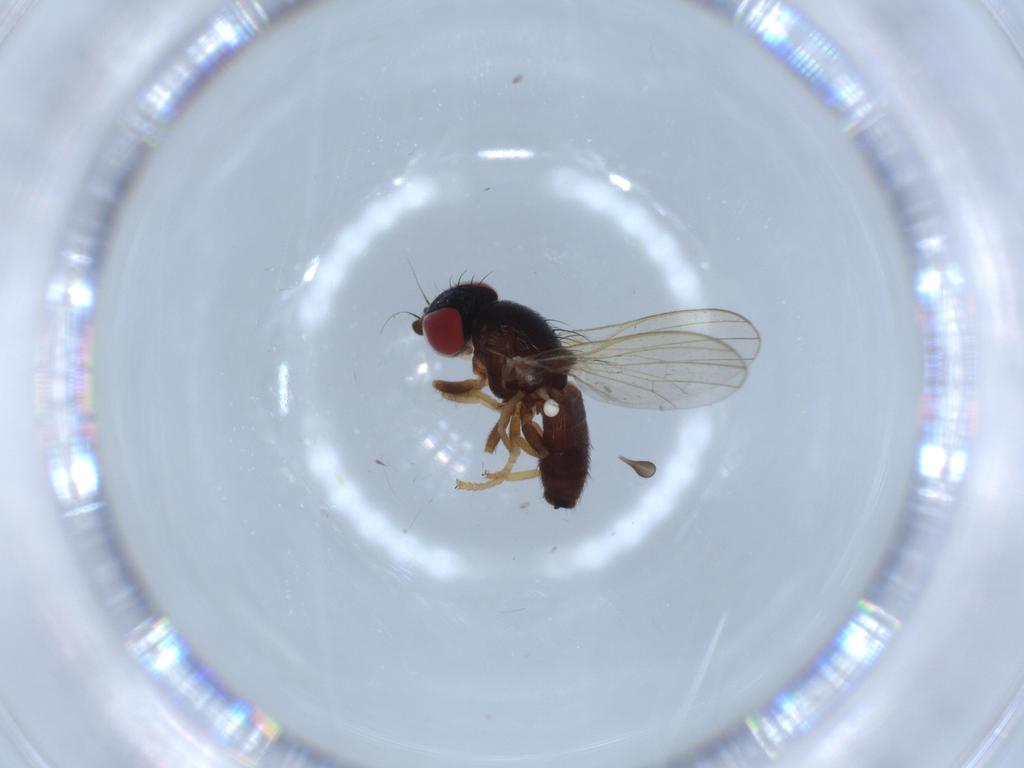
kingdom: Animalia
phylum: Arthropoda
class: Insecta
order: Diptera
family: Chamaemyiidae
